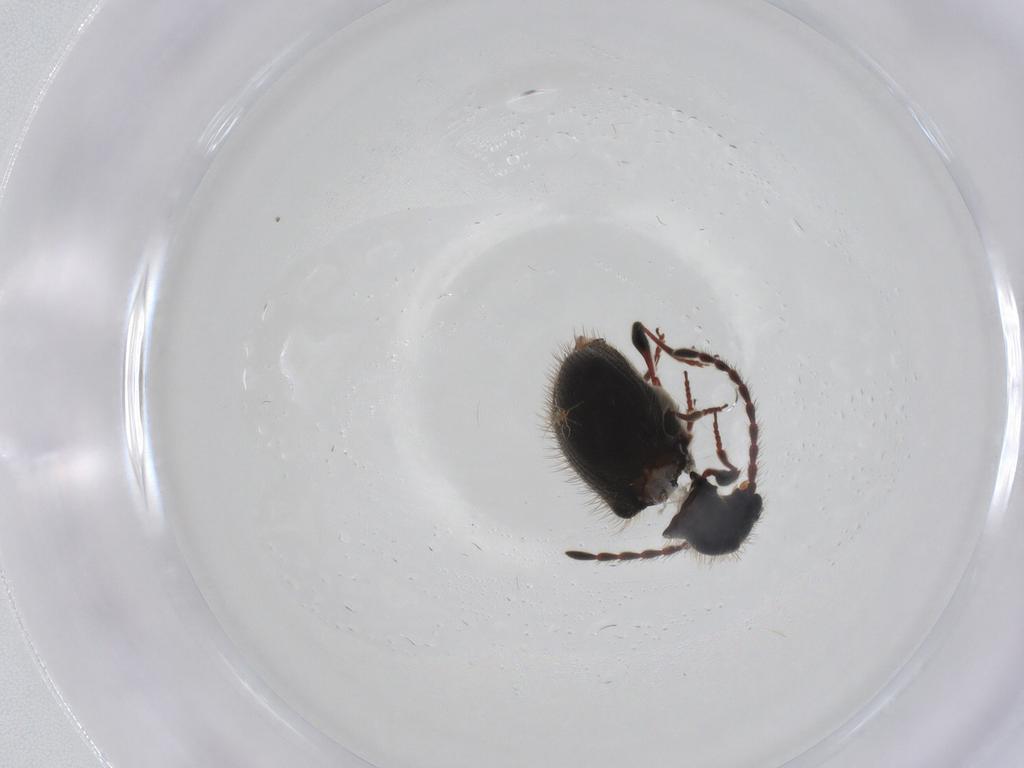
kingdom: Animalia
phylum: Arthropoda
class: Insecta
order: Coleoptera
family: Ptinidae
